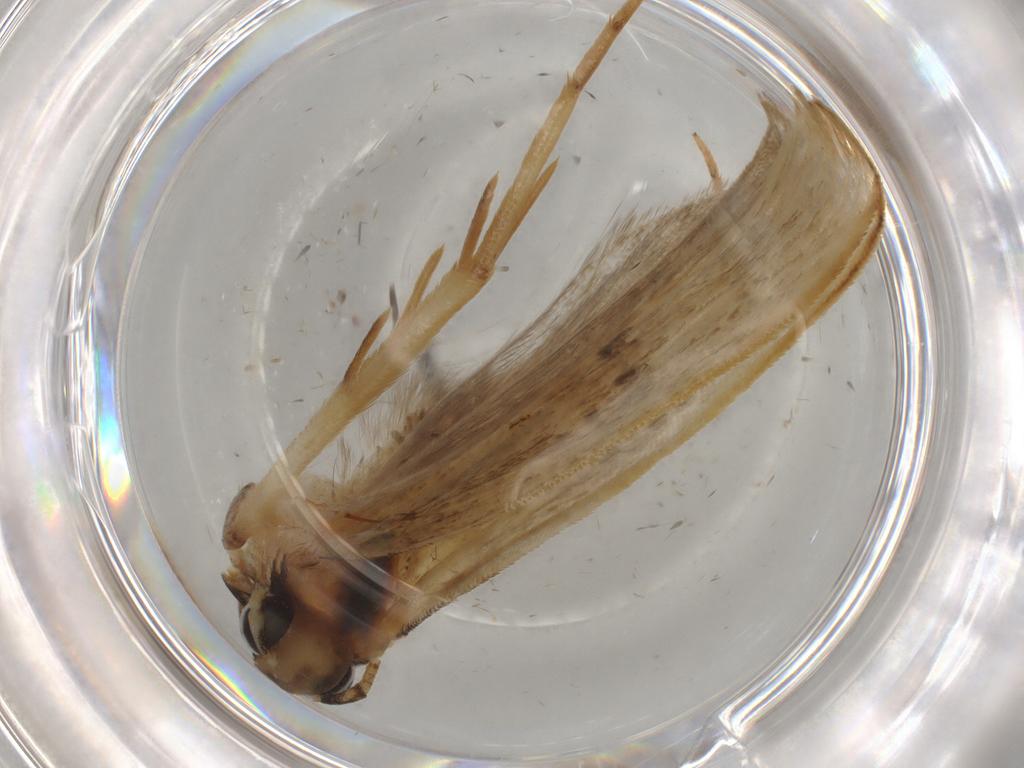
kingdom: Animalia
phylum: Arthropoda
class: Insecta
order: Lepidoptera
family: Gelechiidae
